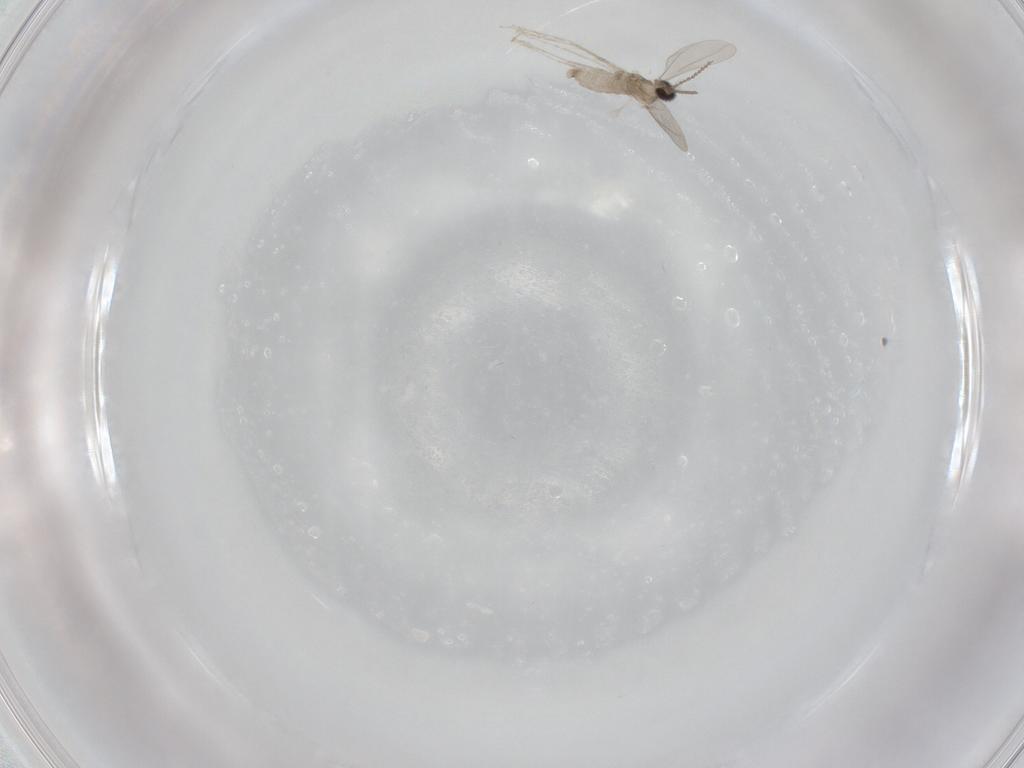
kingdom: Animalia
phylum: Arthropoda
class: Insecta
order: Diptera
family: Cecidomyiidae
